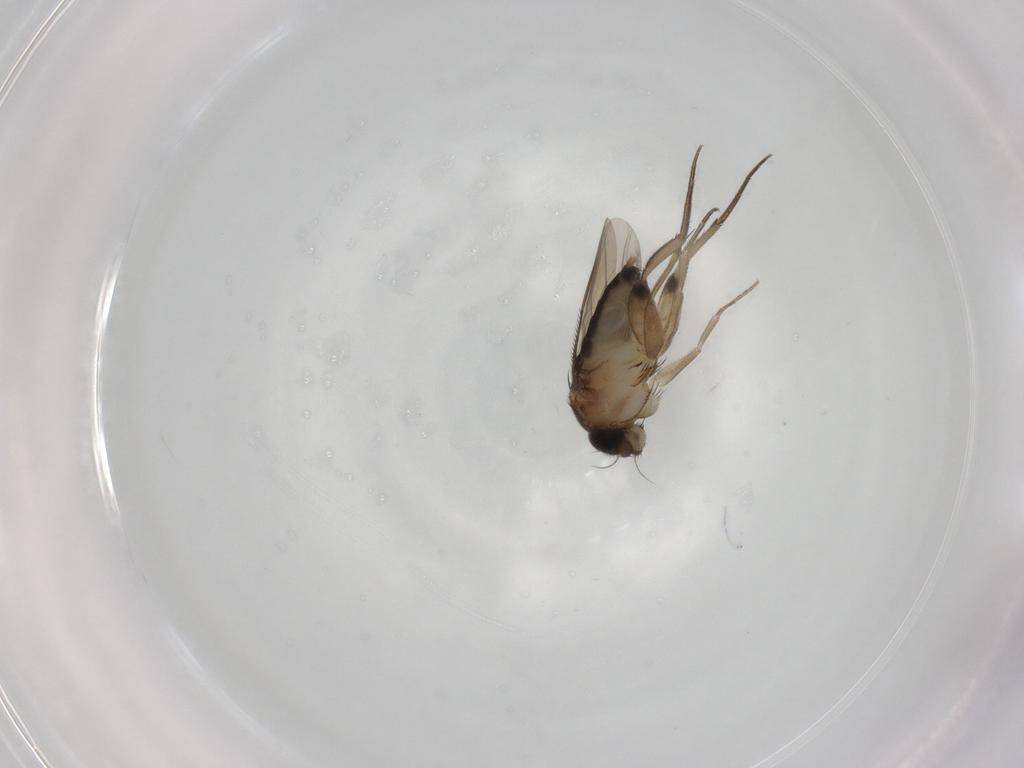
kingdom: Animalia
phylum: Arthropoda
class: Insecta
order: Diptera
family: Phoridae
